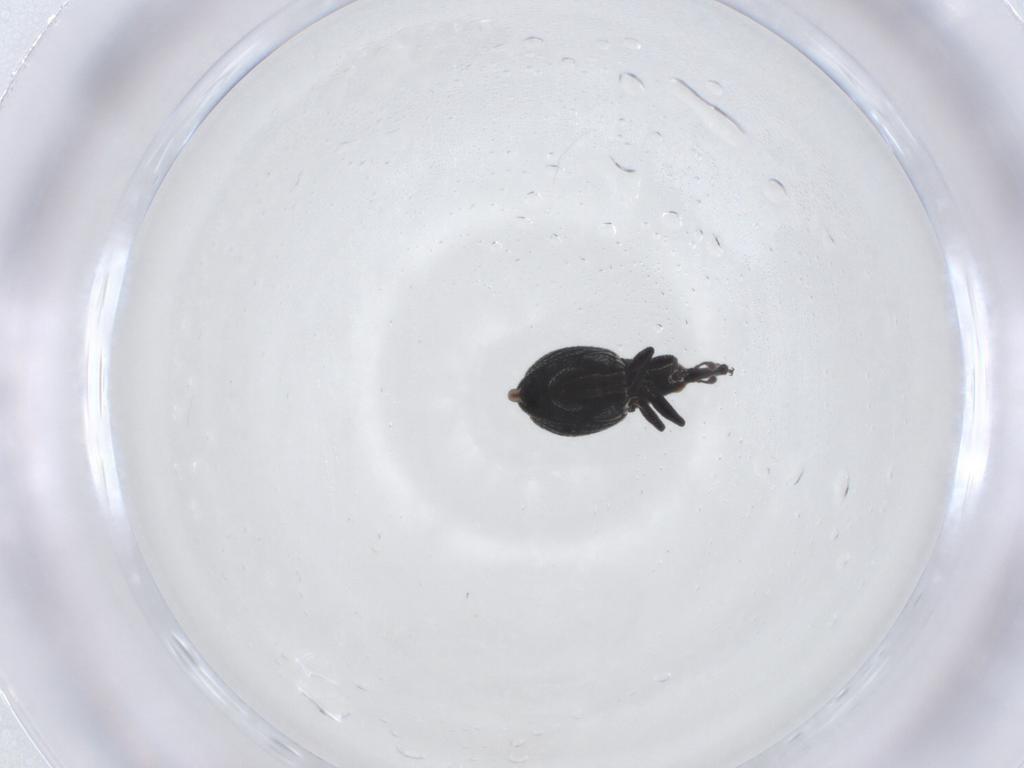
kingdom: Animalia
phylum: Arthropoda
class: Insecta
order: Coleoptera
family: Brentidae
